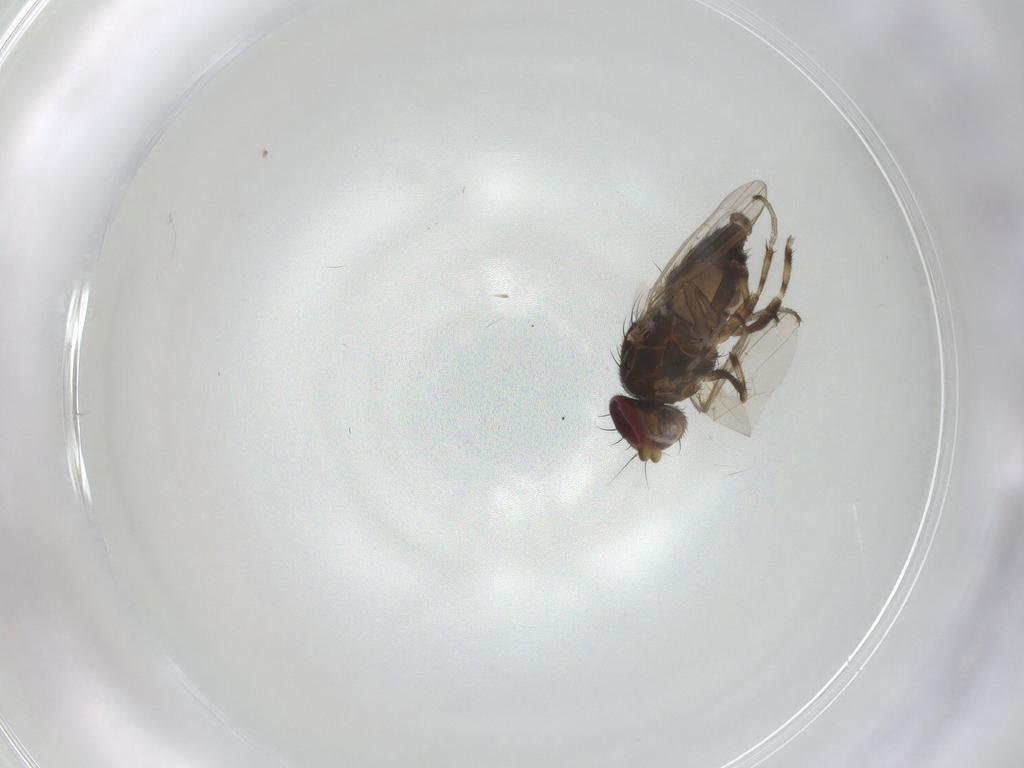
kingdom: Animalia
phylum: Arthropoda
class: Insecta
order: Diptera
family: Heleomyzidae
